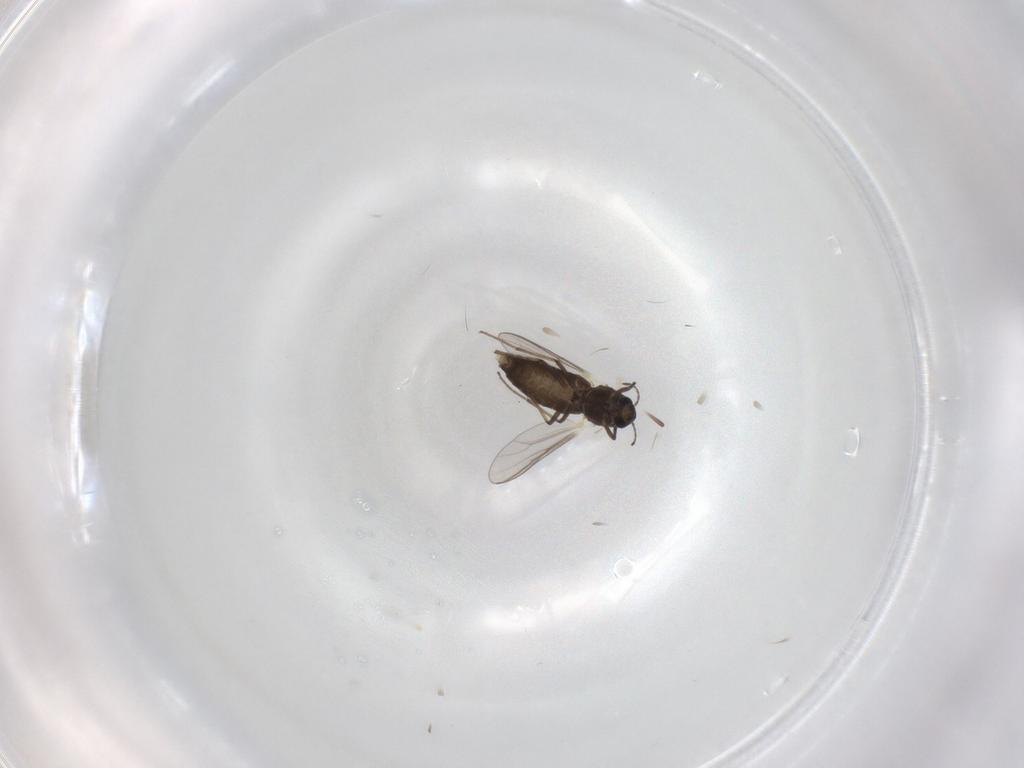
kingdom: Animalia
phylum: Arthropoda
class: Insecta
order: Diptera
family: Chironomidae
